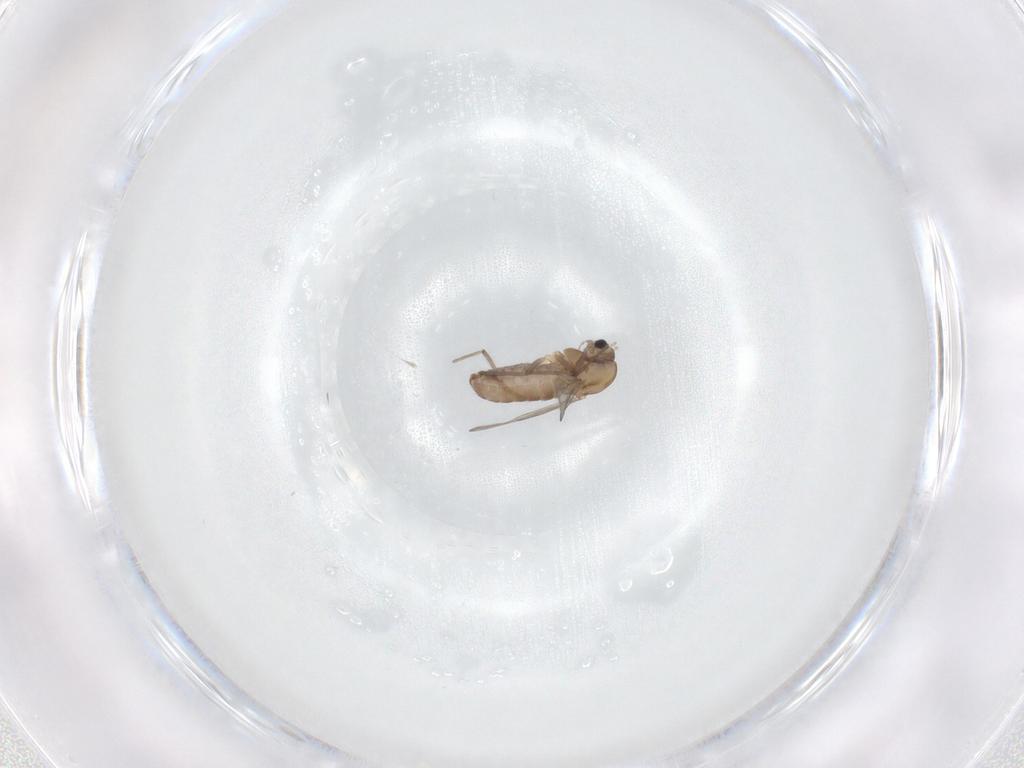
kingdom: Animalia
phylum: Arthropoda
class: Insecta
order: Diptera
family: Chironomidae
